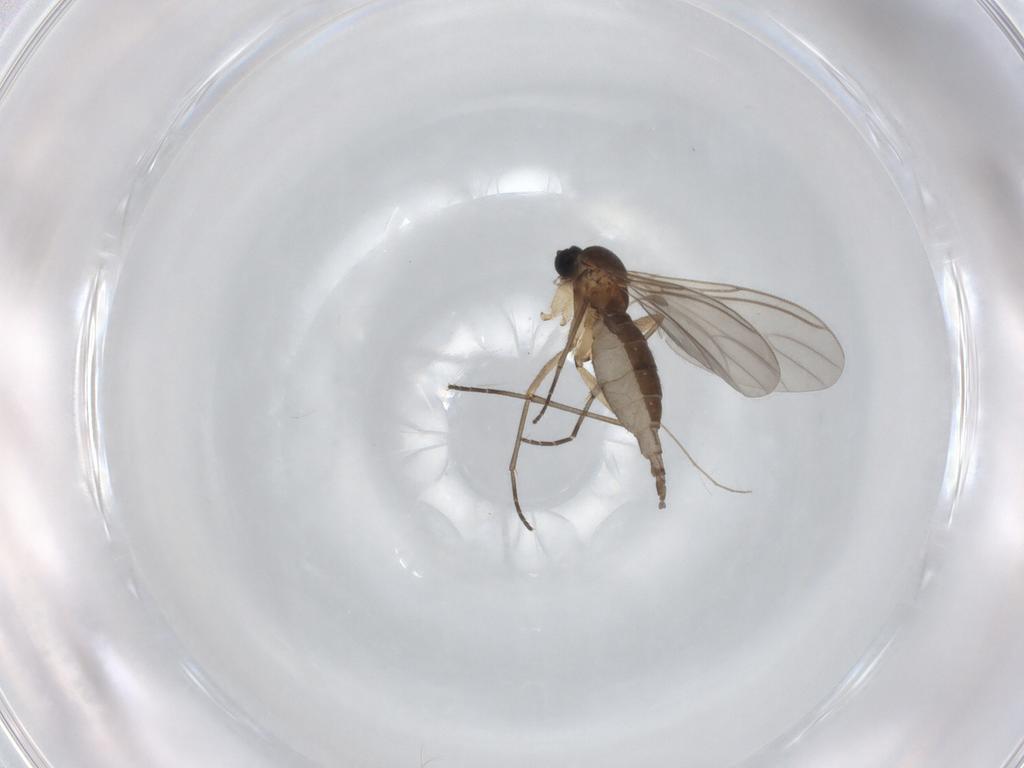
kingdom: Animalia
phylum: Arthropoda
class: Insecta
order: Diptera
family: Sciaridae
